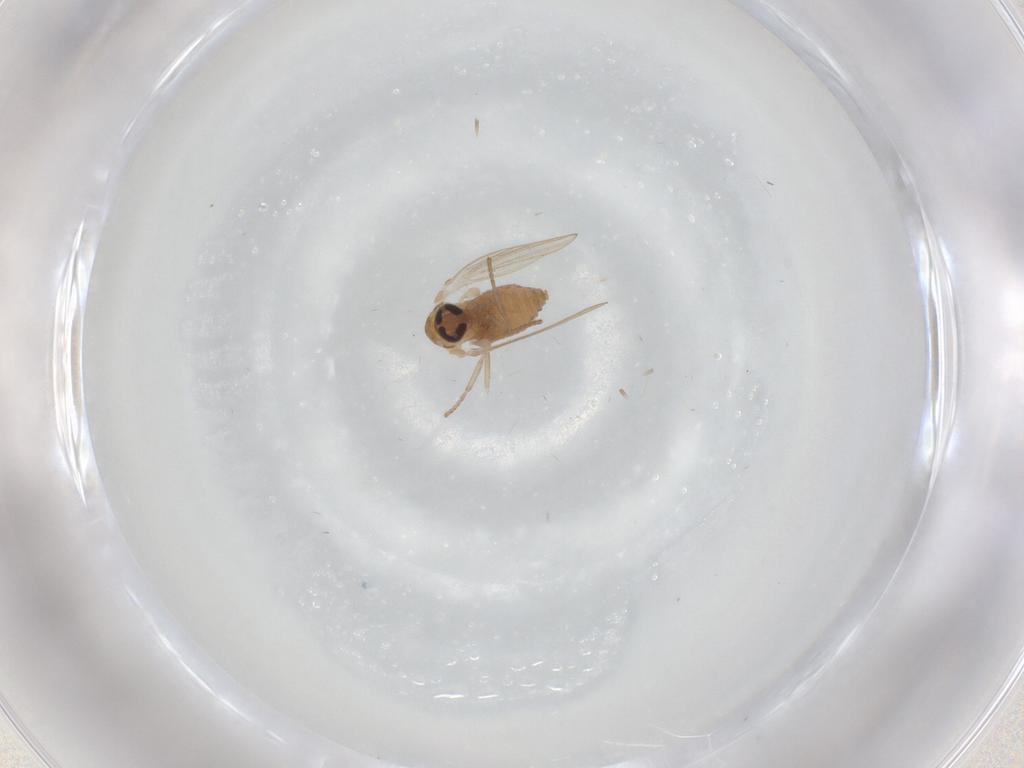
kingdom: Animalia
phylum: Arthropoda
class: Insecta
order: Diptera
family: Psychodidae
